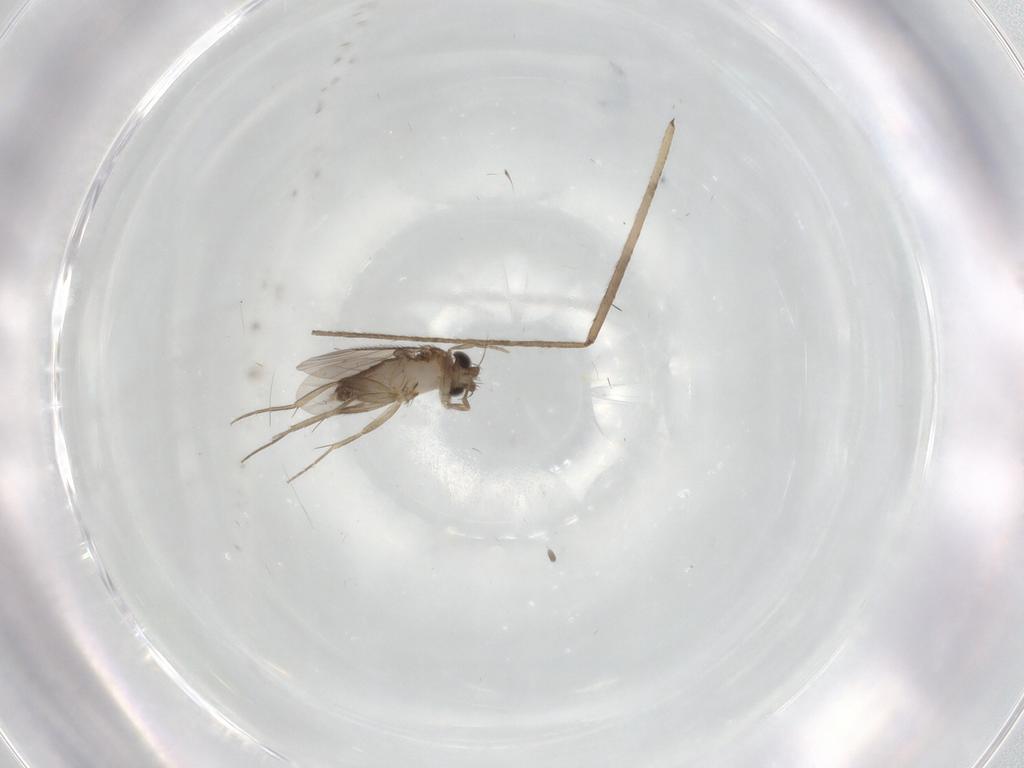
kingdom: Animalia
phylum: Arthropoda
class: Insecta
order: Diptera
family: Phoridae
